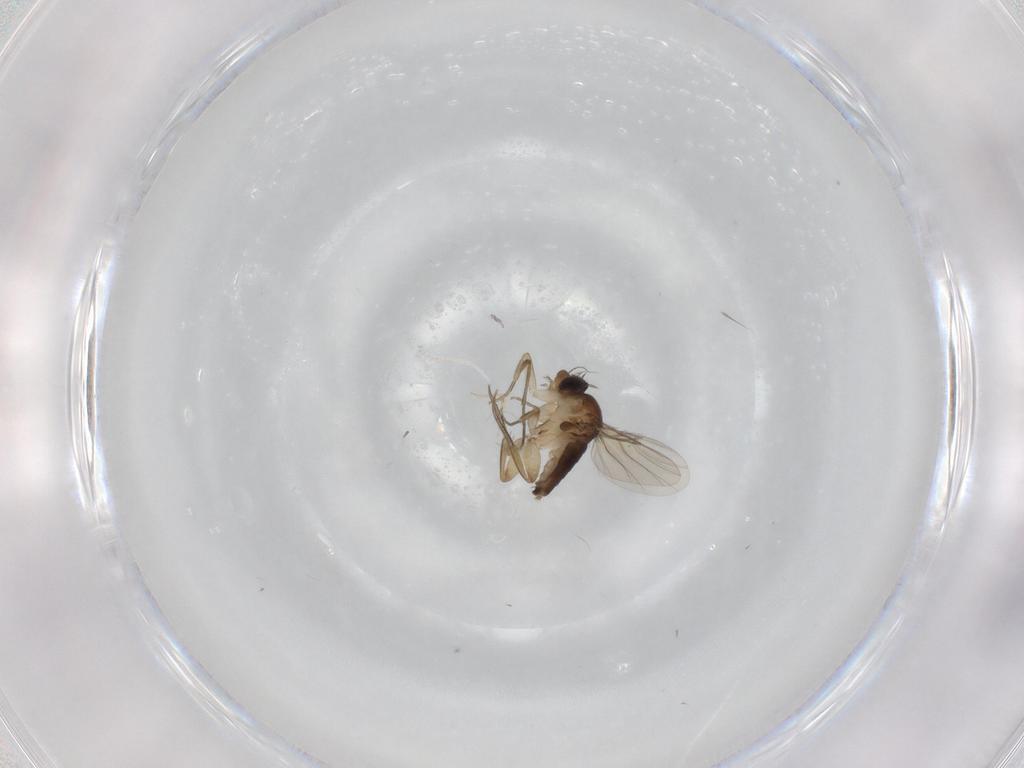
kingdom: Animalia
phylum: Arthropoda
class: Insecta
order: Diptera
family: Phoridae
